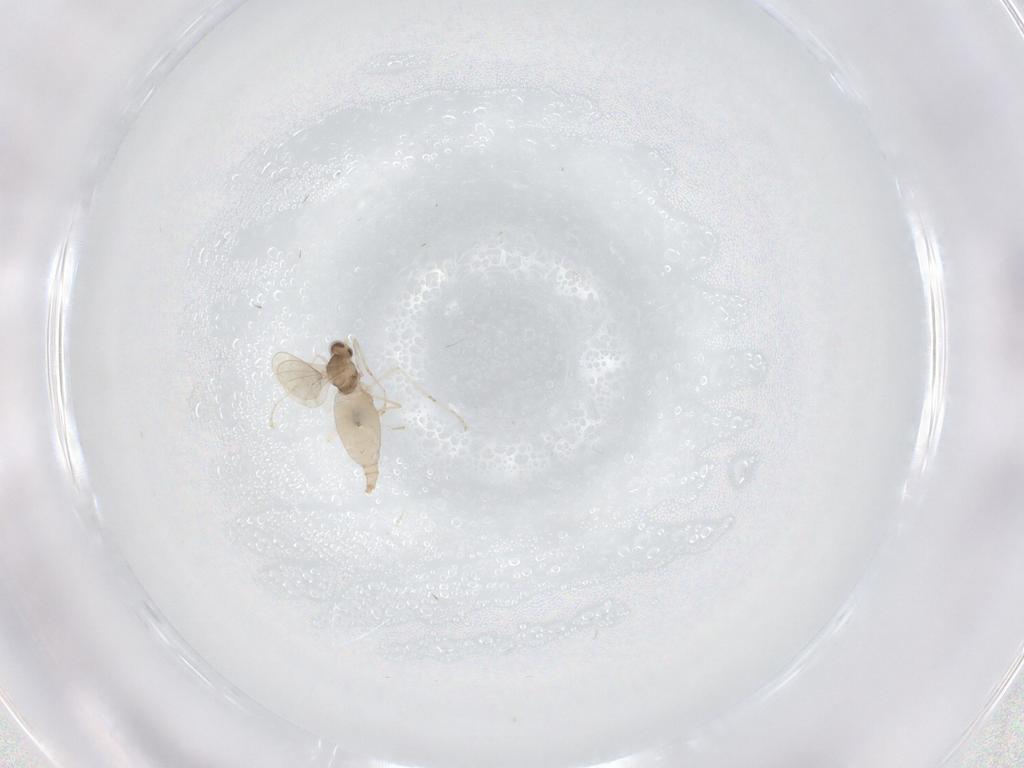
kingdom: Animalia
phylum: Arthropoda
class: Insecta
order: Diptera
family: Cecidomyiidae
